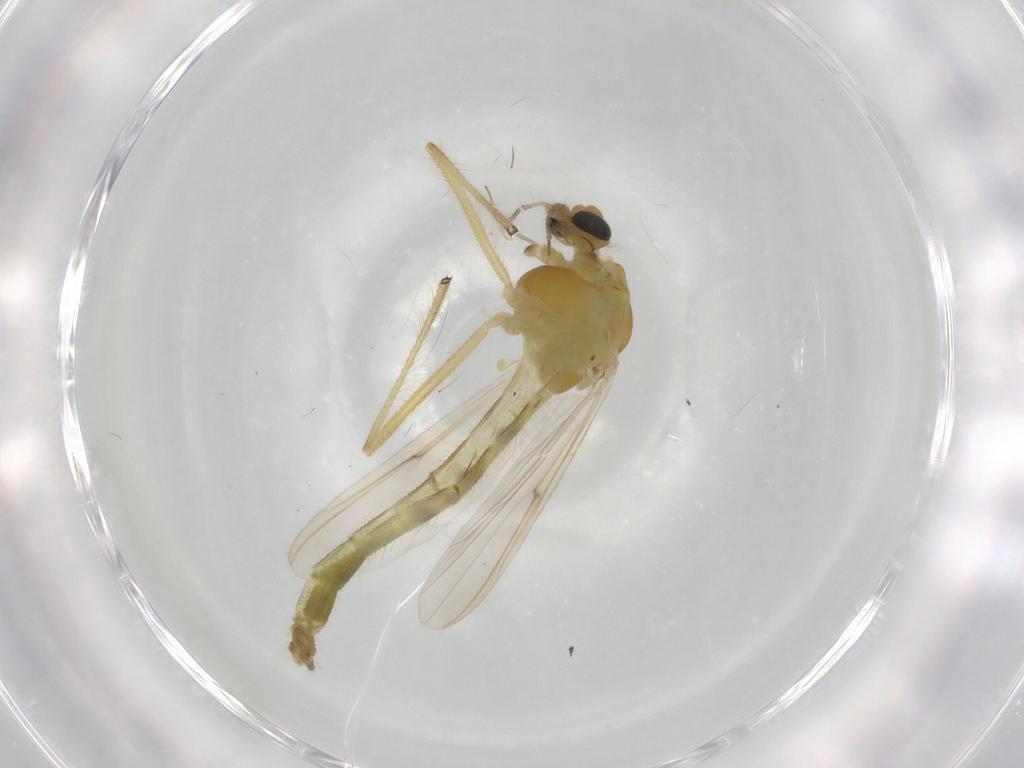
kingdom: Animalia
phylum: Arthropoda
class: Insecta
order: Diptera
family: Chironomidae
